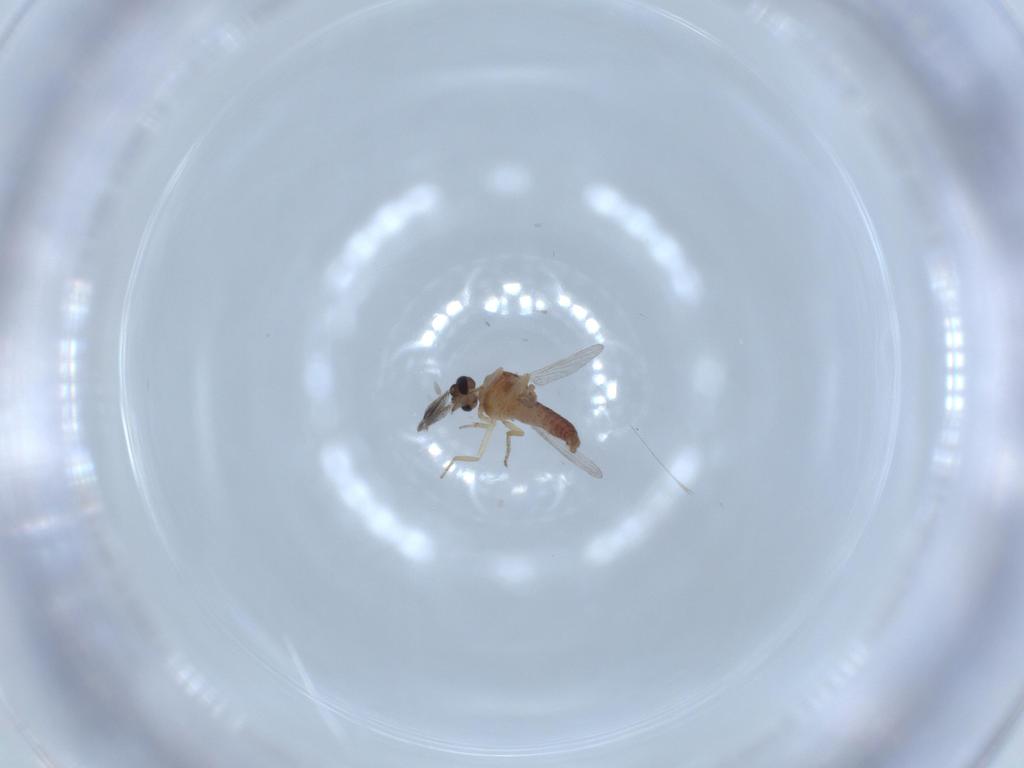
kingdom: Animalia
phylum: Arthropoda
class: Insecta
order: Diptera
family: Ceratopogonidae
